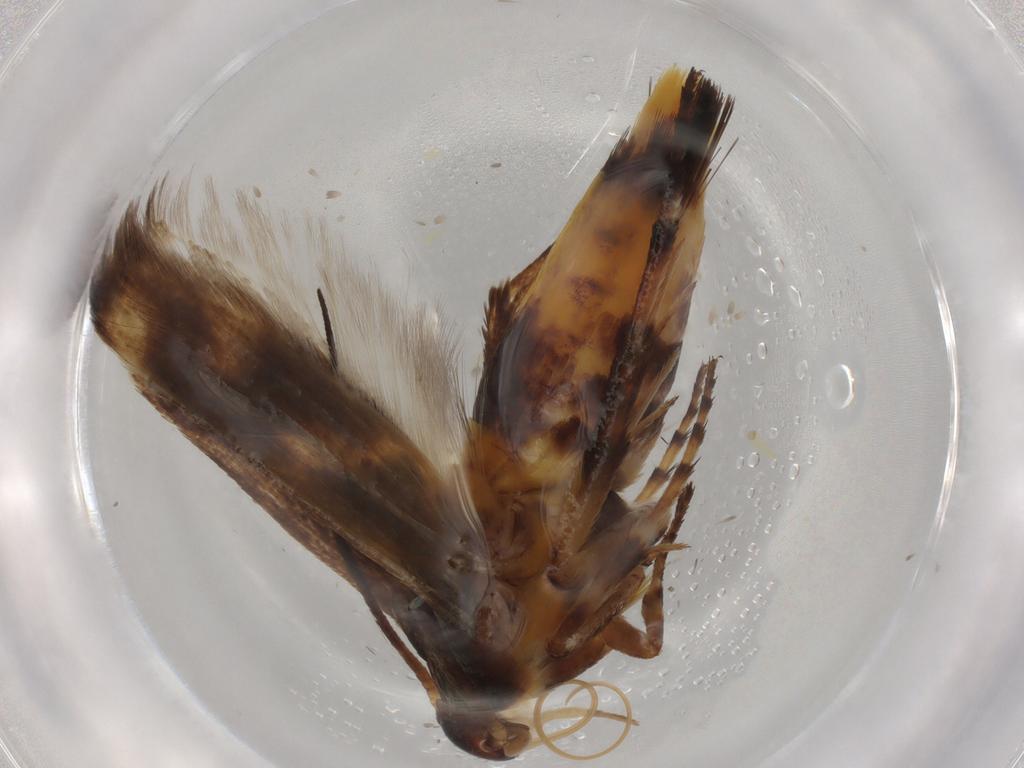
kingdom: Animalia
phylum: Arthropoda
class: Insecta
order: Lepidoptera
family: Scythrididae
